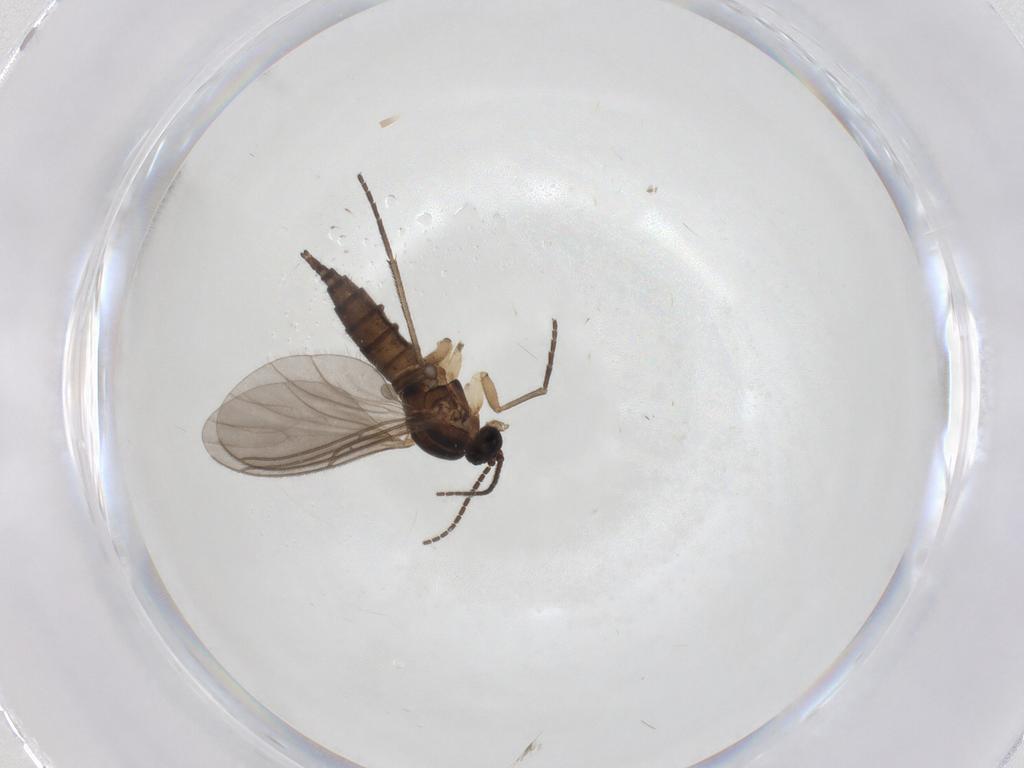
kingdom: Animalia
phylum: Arthropoda
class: Insecta
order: Diptera
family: Sciaridae
